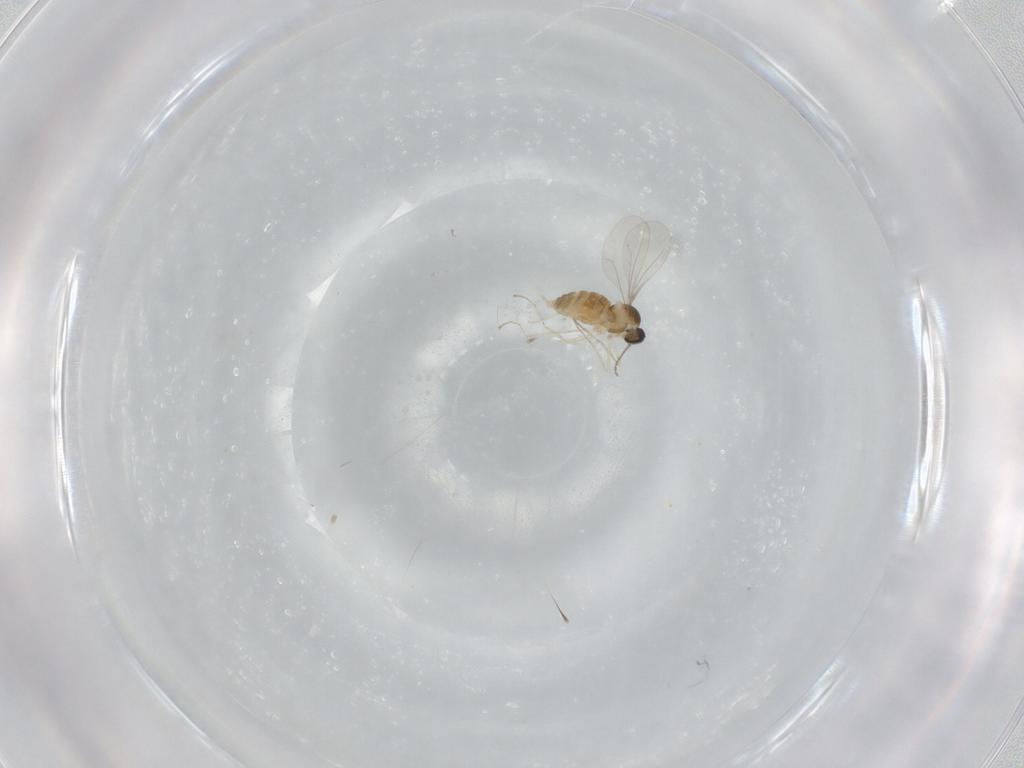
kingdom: Animalia
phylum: Arthropoda
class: Insecta
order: Diptera
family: Cecidomyiidae
